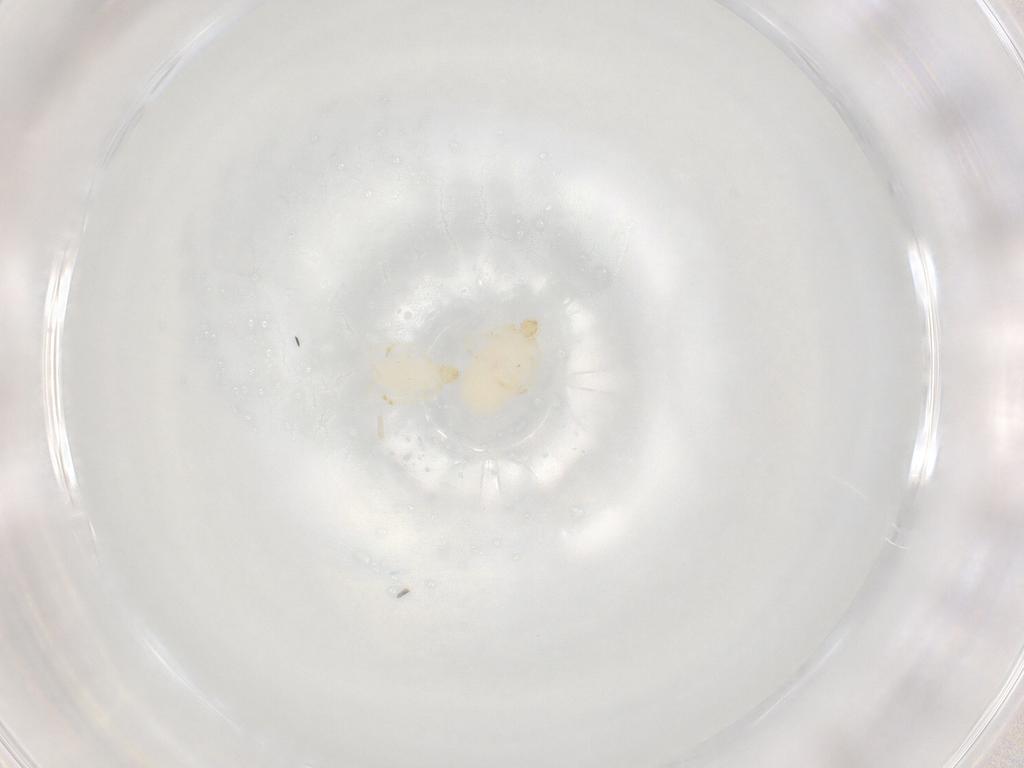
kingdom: Animalia
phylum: Arthropoda
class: Arachnida
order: Trombidiformes
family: Erythraeidae
